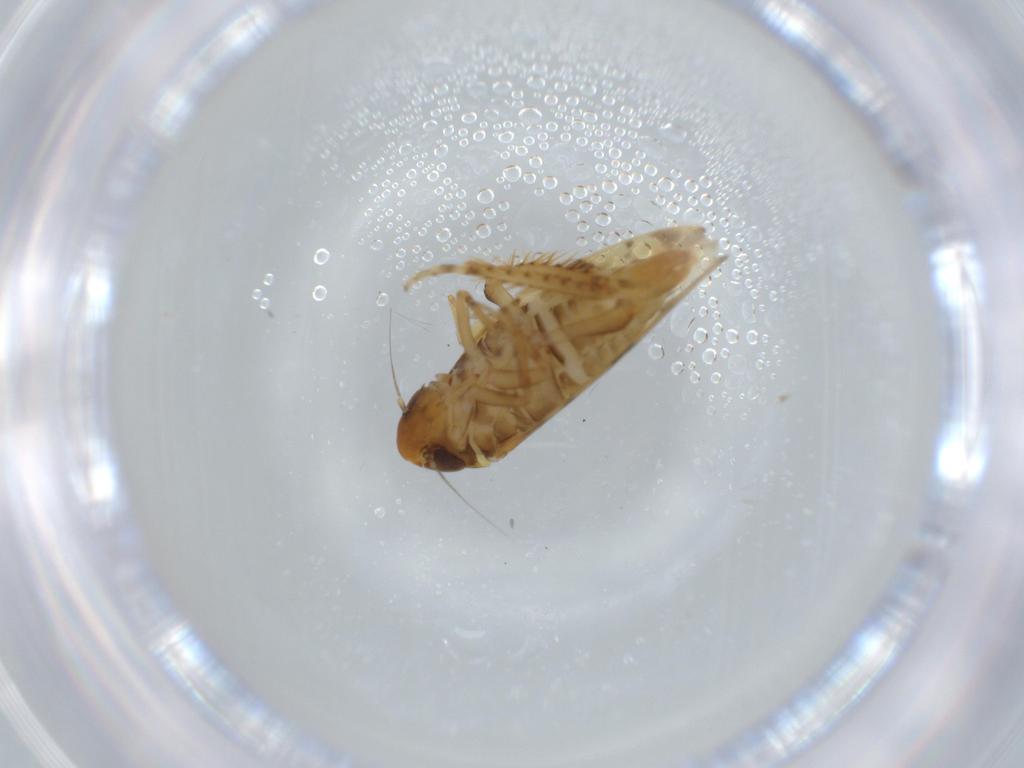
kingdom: Animalia
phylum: Arthropoda
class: Insecta
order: Hemiptera
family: Cicadellidae
